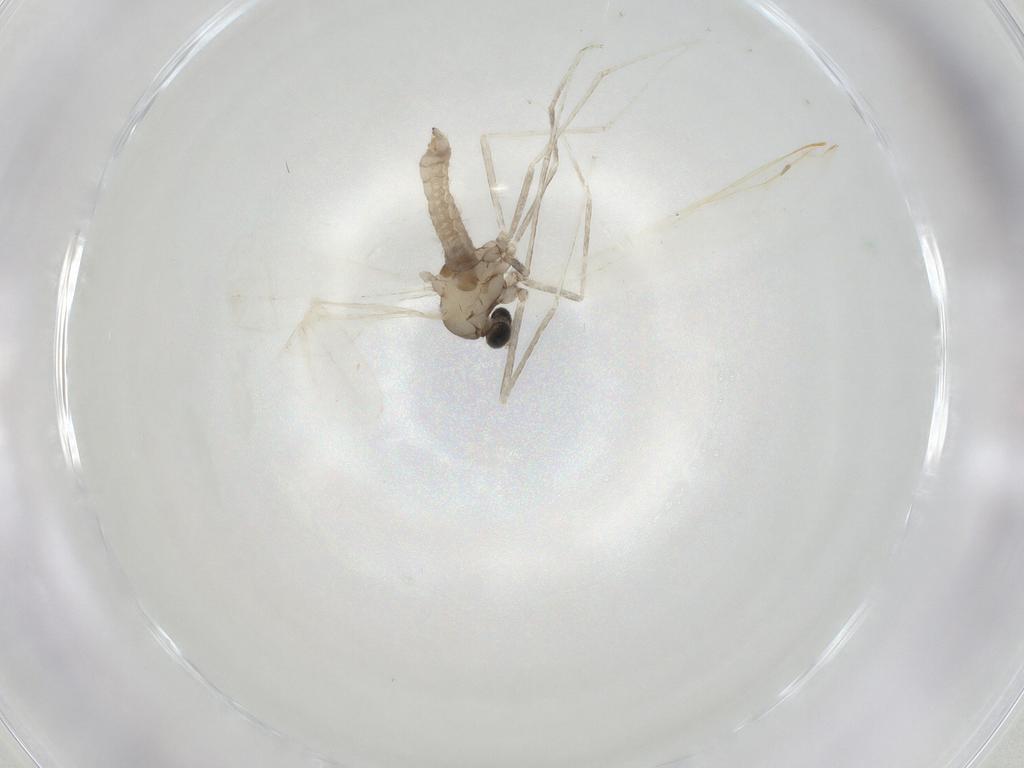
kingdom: Animalia
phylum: Arthropoda
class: Insecta
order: Diptera
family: Cecidomyiidae
